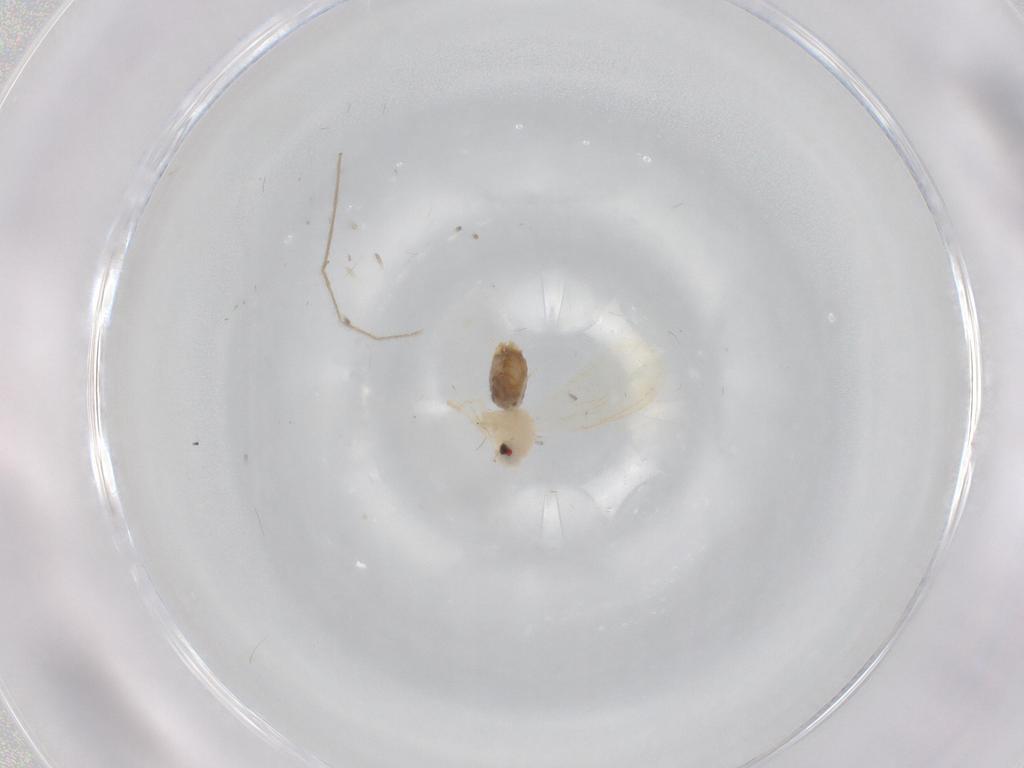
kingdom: Animalia
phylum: Arthropoda
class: Insecta
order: Hemiptera
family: Aleyrodidae
